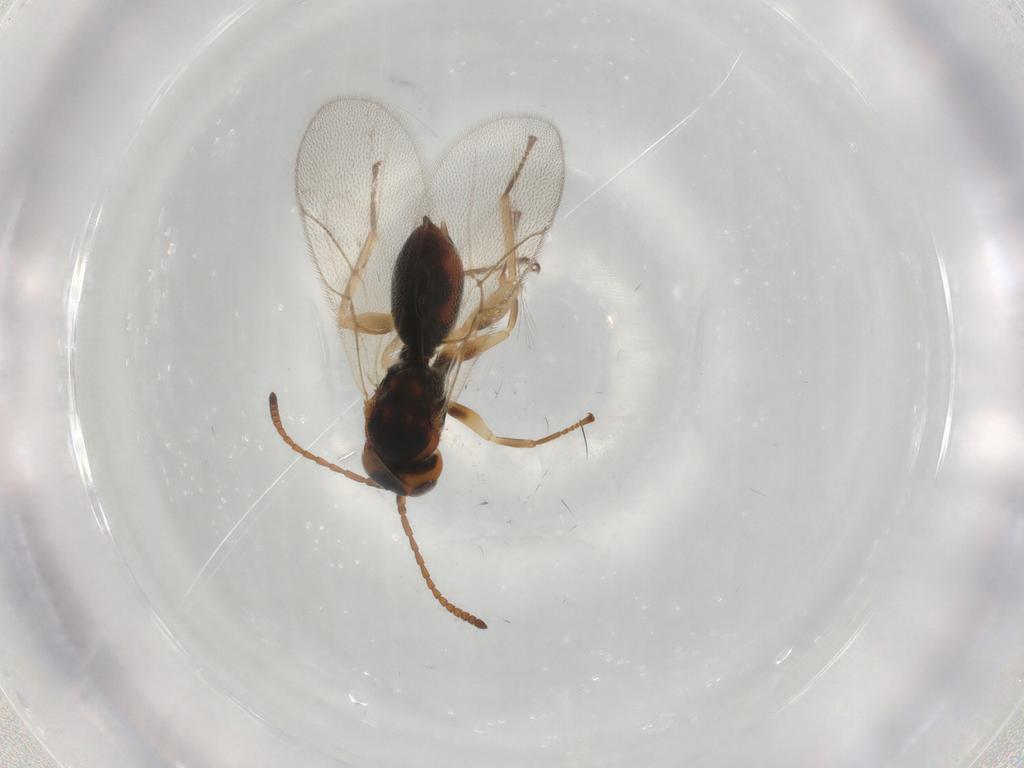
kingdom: Animalia
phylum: Arthropoda
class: Insecta
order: Hymenoptera
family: Cynipidae
